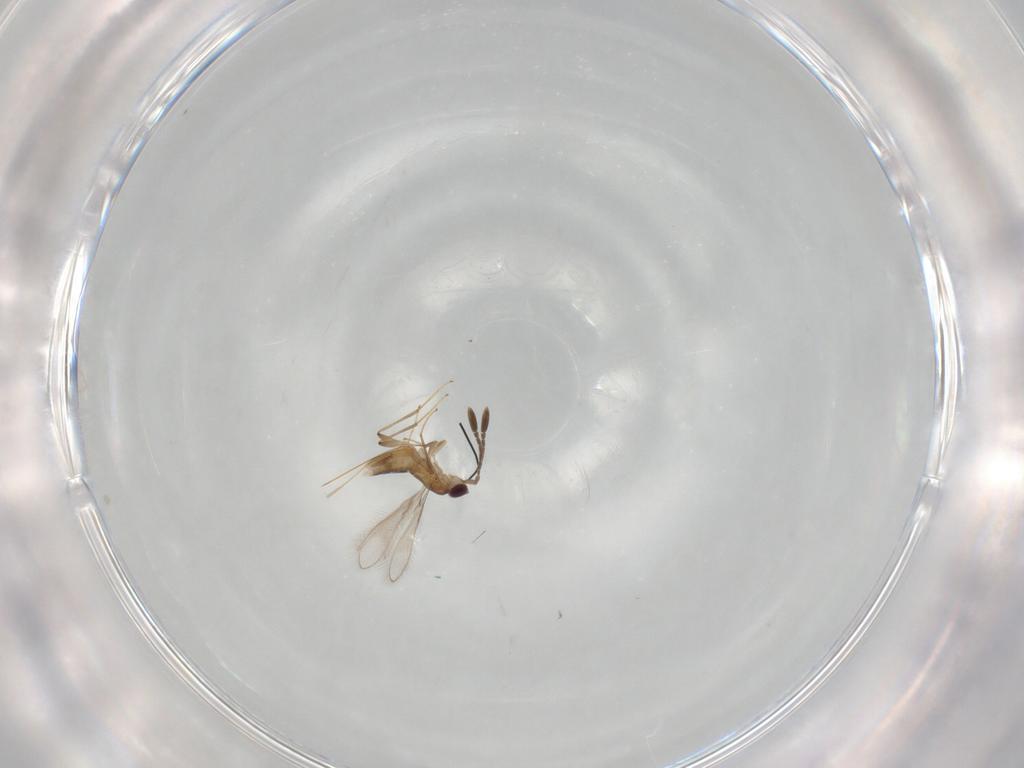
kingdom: Animalia
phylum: Arthropoda
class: Insecta
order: Hymenoptera
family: Mymaridae
